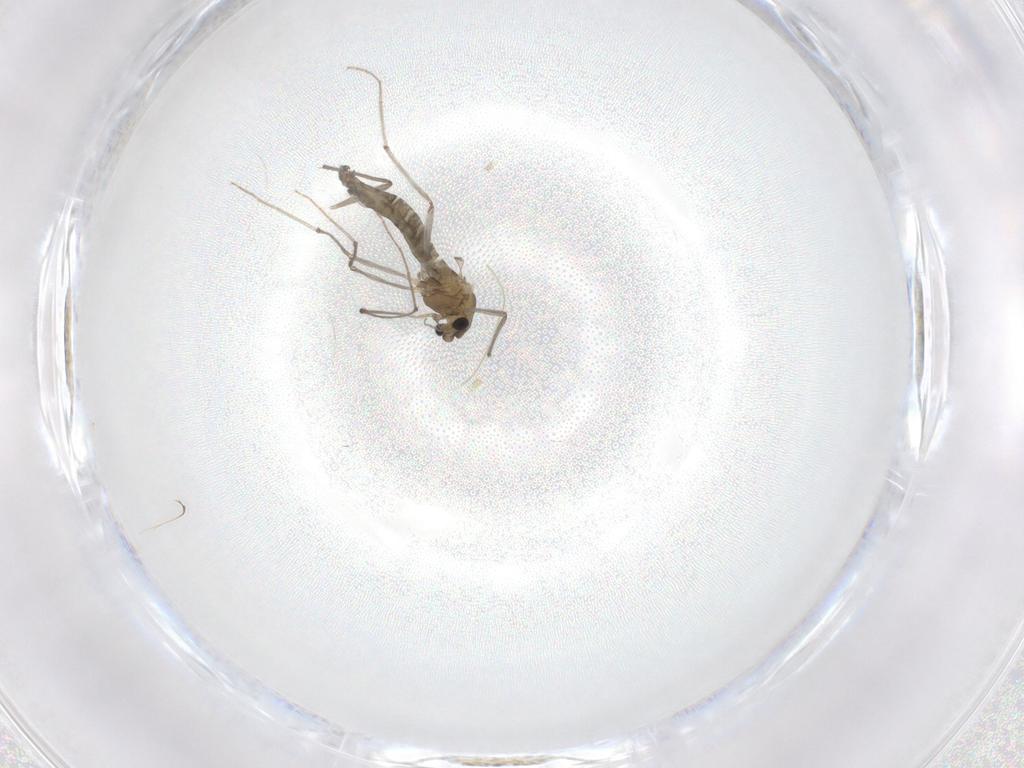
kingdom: Animalia
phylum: Arthropoda
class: Insecta
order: Diptera
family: Chironomidae
